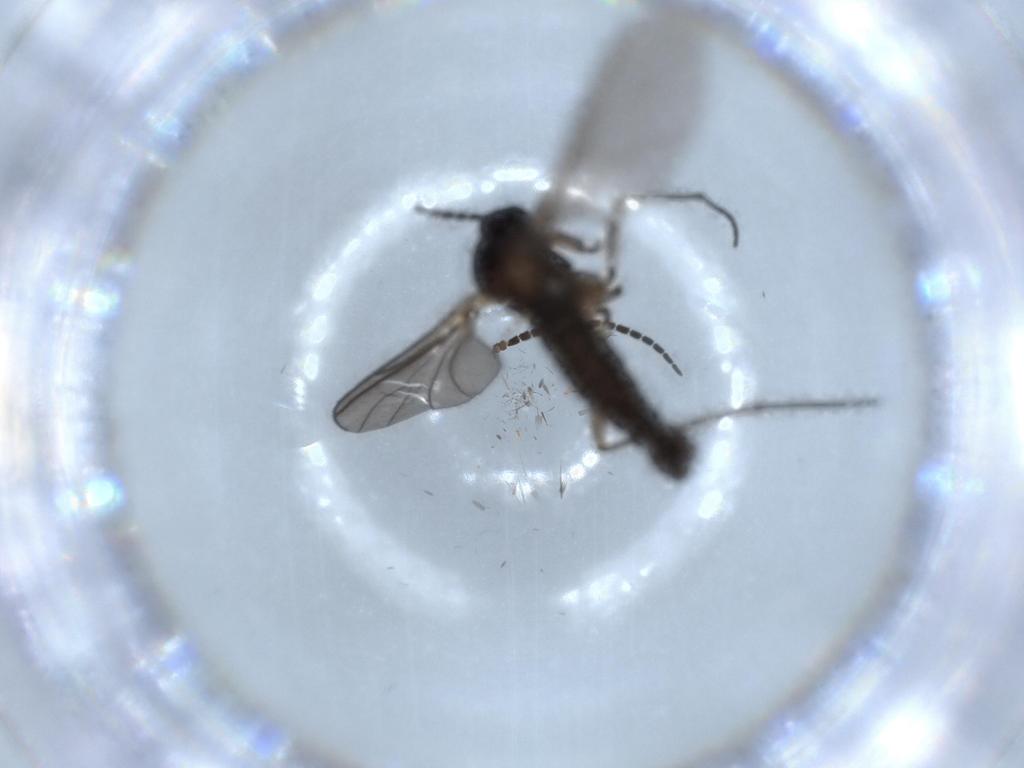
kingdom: Animalia
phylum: Arthropoda
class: Insecta
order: Diptera
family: Sciaridae
